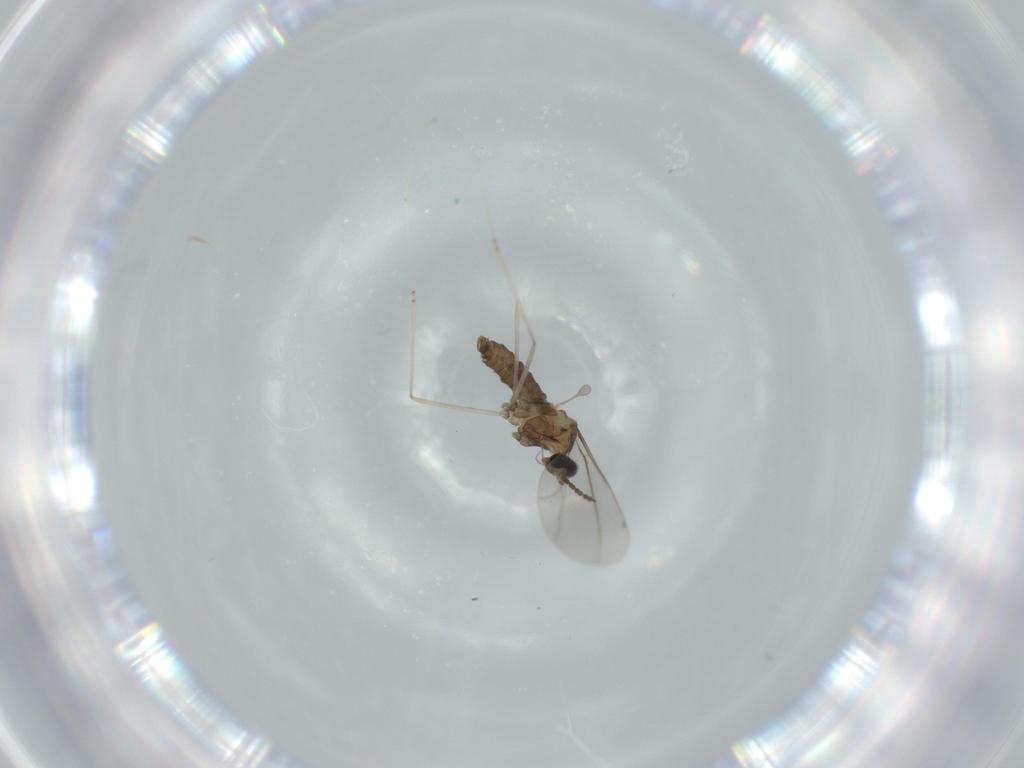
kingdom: Animalia
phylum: Arthropoda
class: Insecta
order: Diptera
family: Cecidomyiidae
